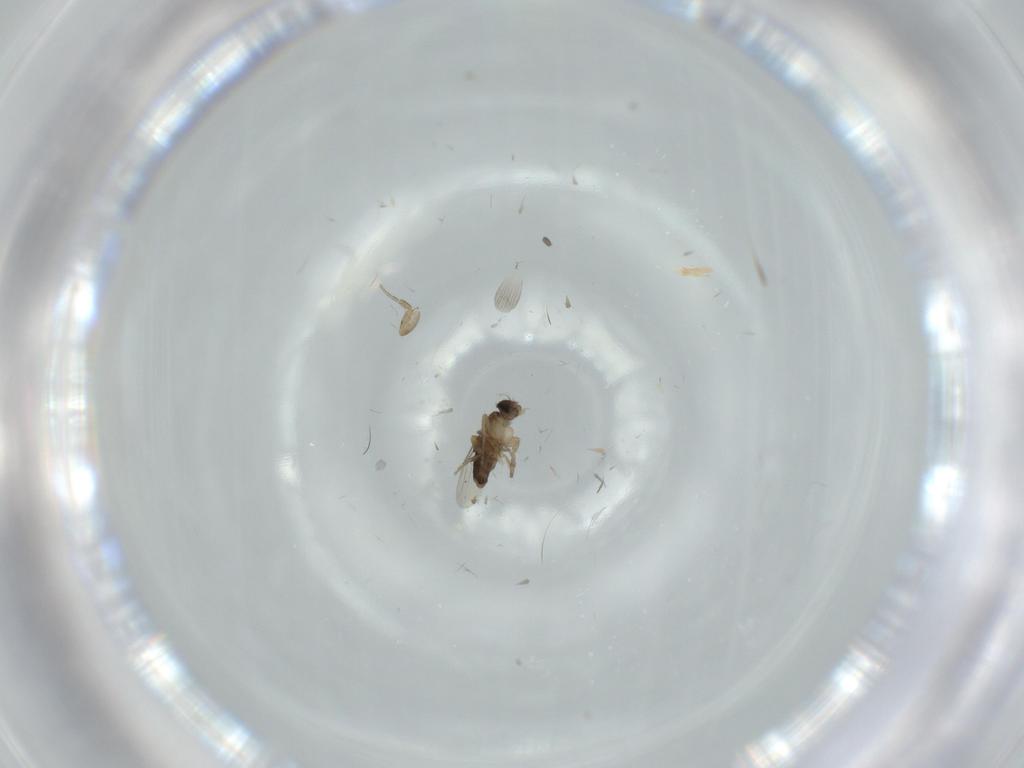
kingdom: Animalia
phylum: Arthropoda
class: Insecta
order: Diptera
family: Phoridae
